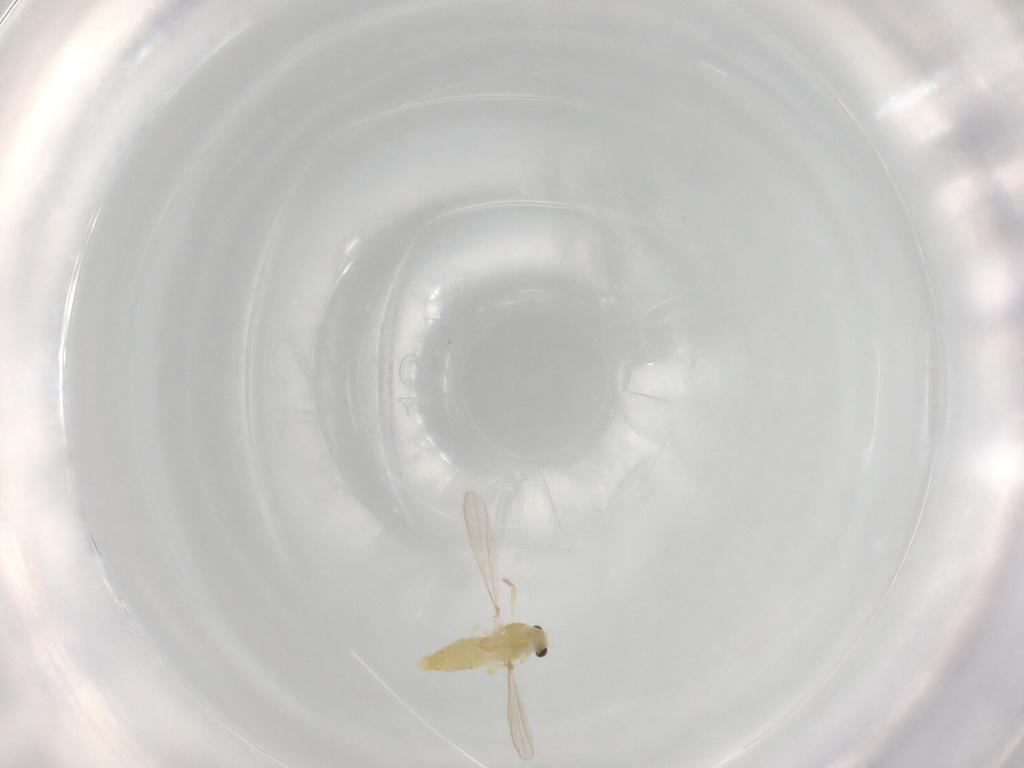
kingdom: Animalia
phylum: Arthropoda
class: Insecta
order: Diptera
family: Chironomidae
